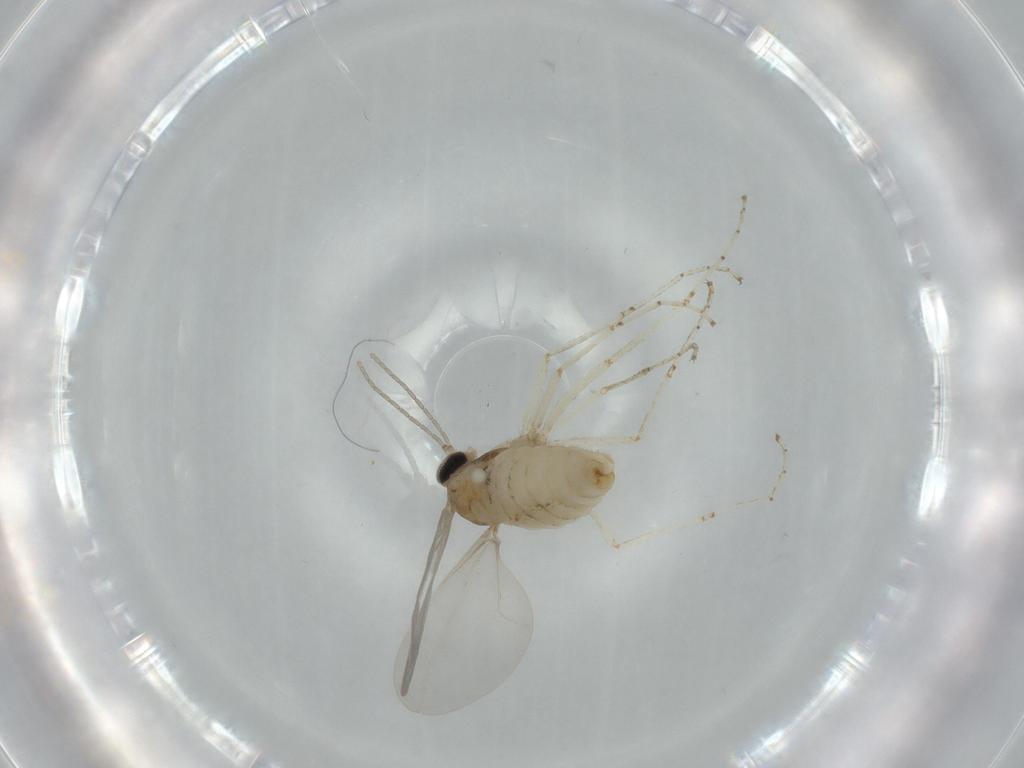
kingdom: Animalia
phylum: Arthropoda
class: Insecta
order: Diptera
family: Cecidomyiidae
